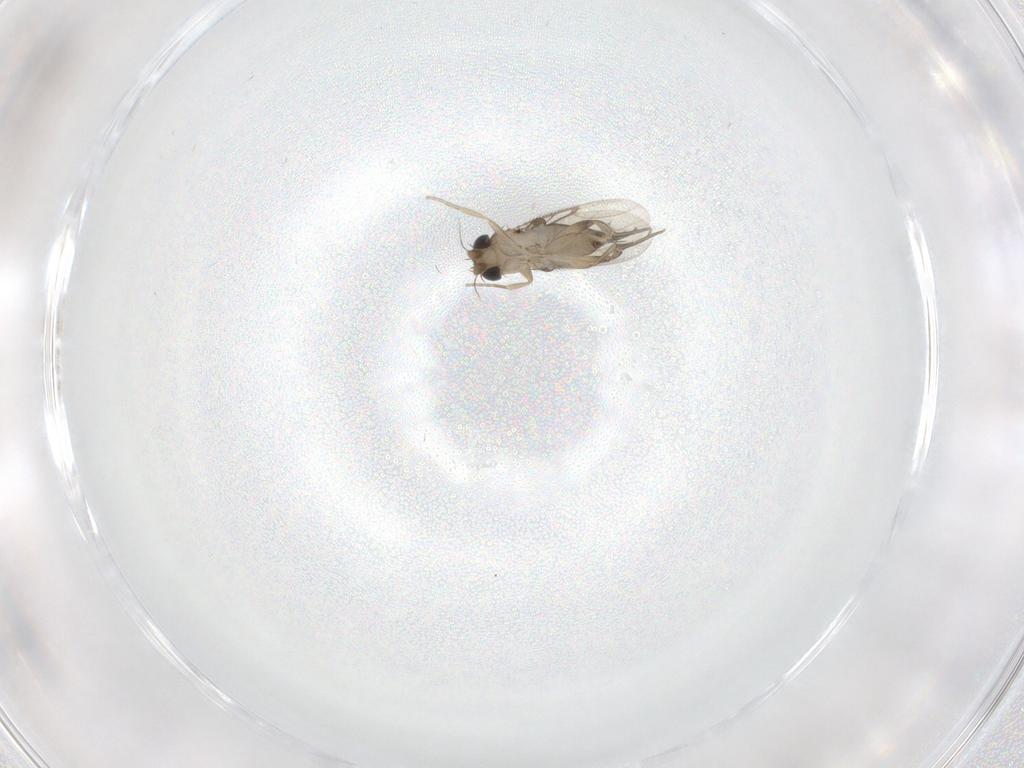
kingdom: Animalia
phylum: Arthropoda
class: Insecta
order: Diptera
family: Phoridae
